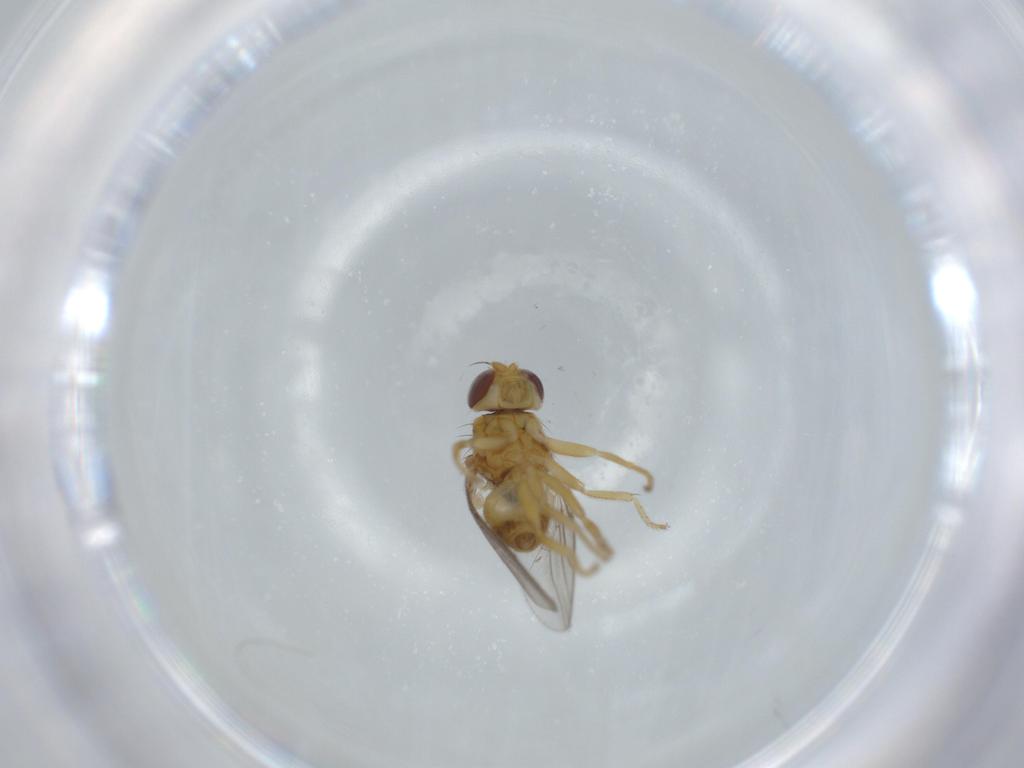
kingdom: Animalia
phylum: Arthropoda
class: Insecta
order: Diptera
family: Chloropidae
